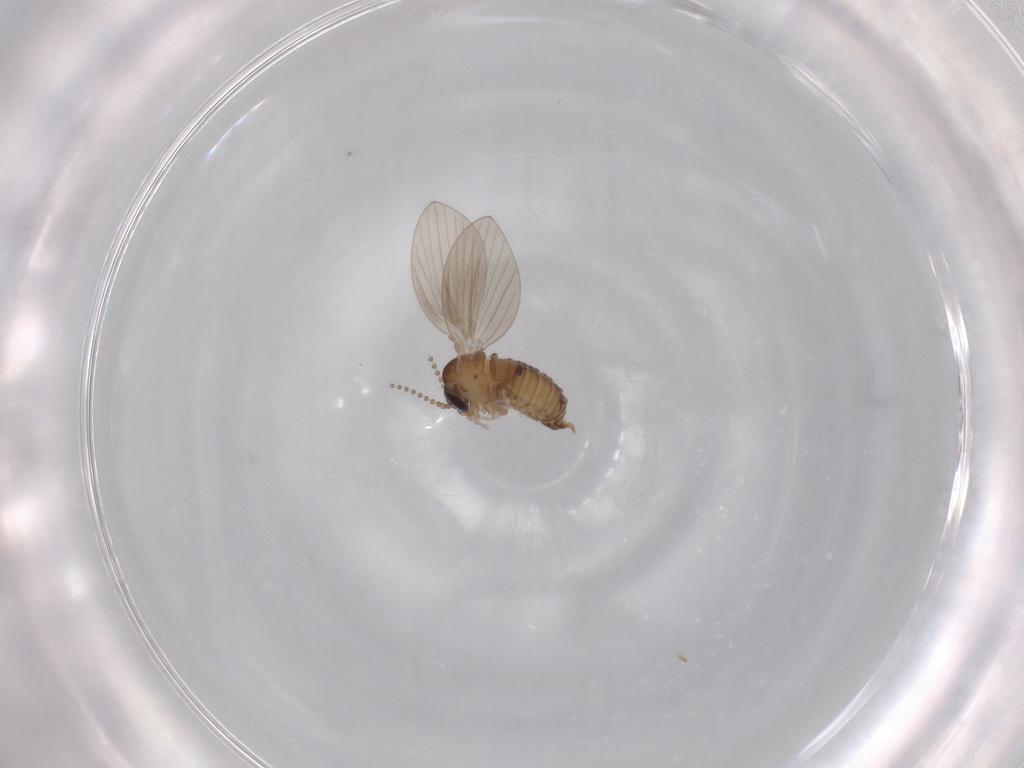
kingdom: Animalia
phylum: Arthropoda
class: Insecta
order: Diptera
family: Psychodidae
